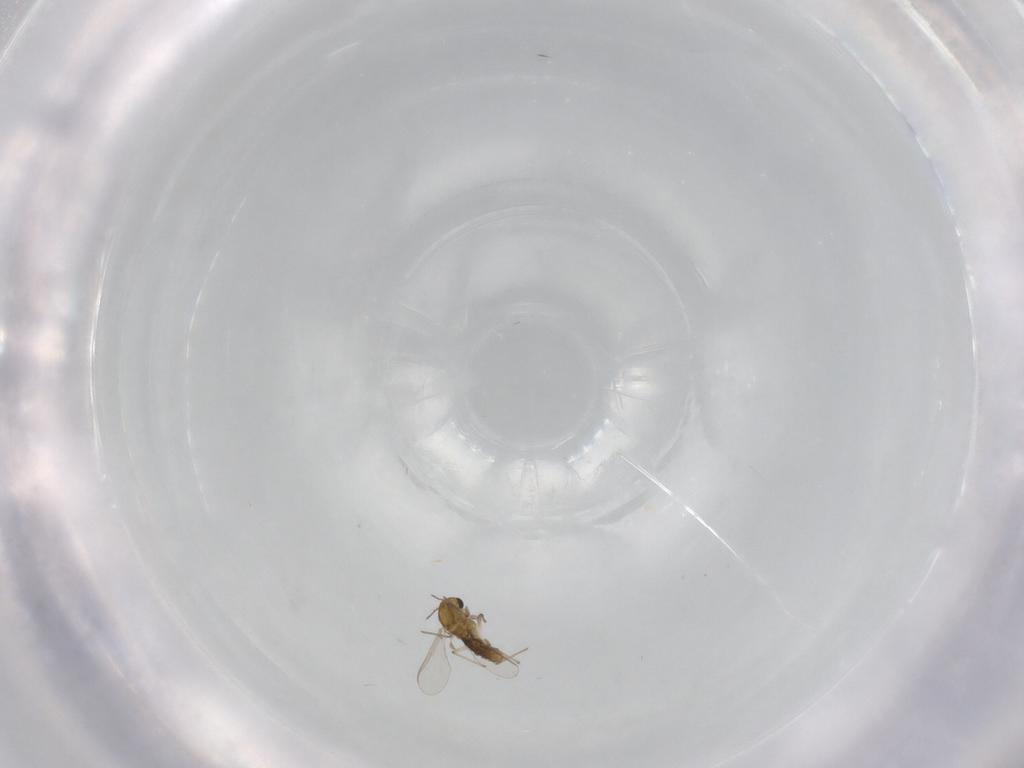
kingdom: Animalia
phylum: Arthropoda
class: Insecta
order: Diptera
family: Chironomidae
